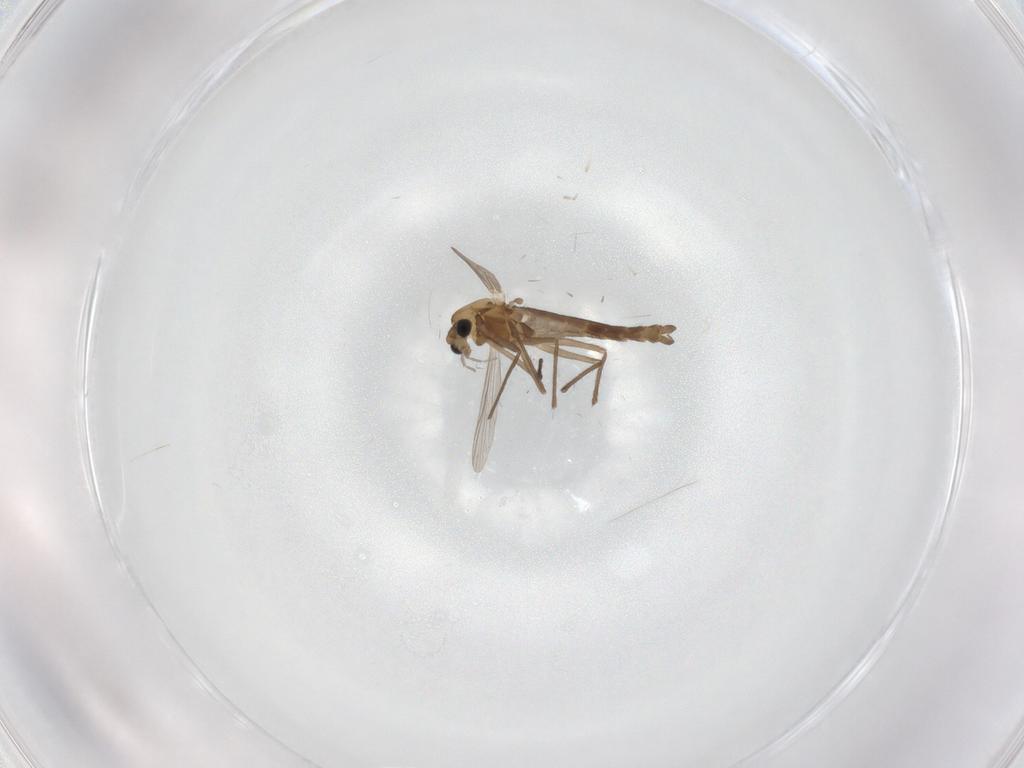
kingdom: Animalia
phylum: Arthropoda
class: Insecta
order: Diptera
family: Chironomidae
